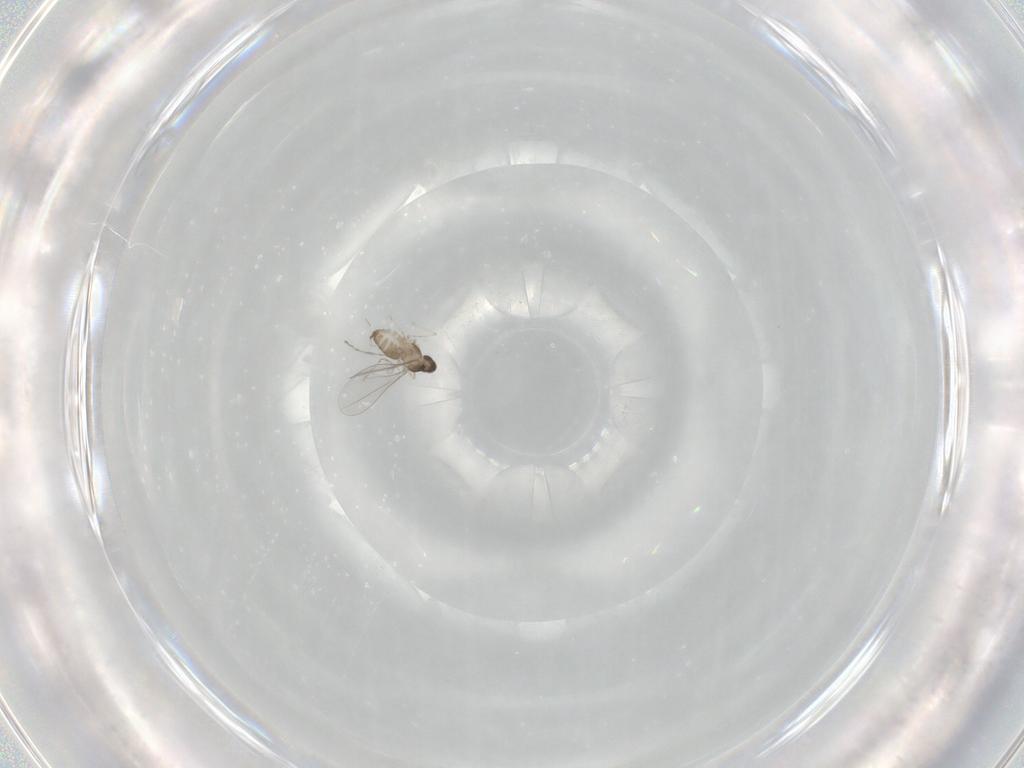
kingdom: Animalia
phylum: Arthropoda
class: Insecta
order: Diptera
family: Cecidomyiidae
